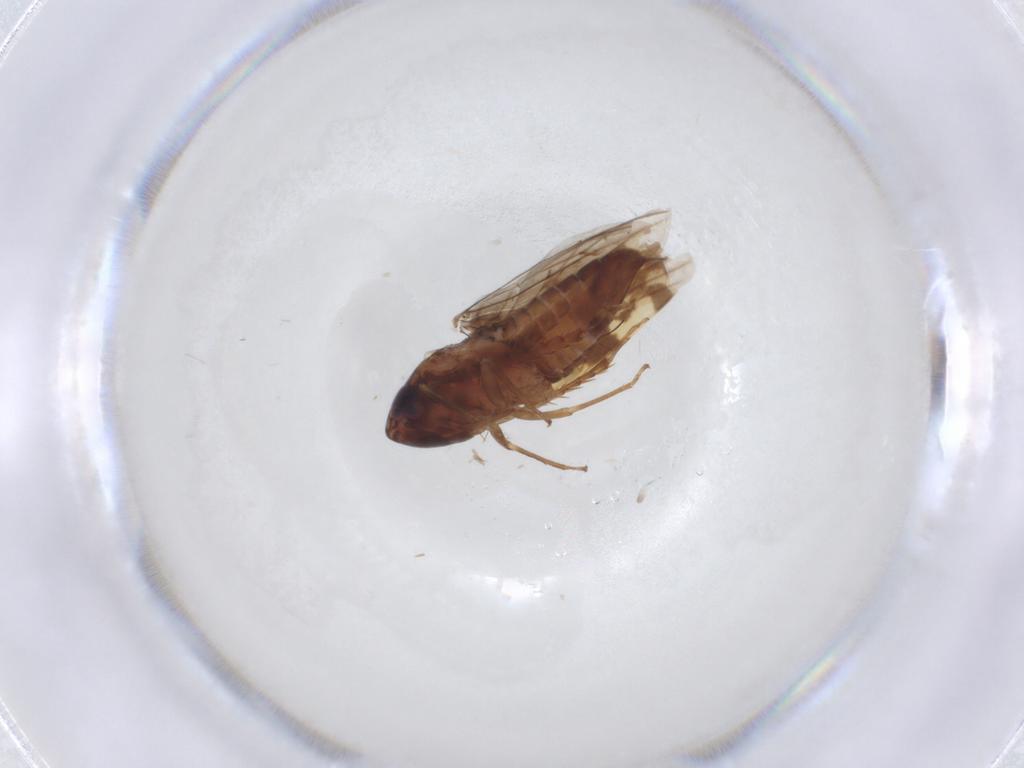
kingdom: Animalia
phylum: Arthropoda
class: Insecta
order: Hemiptera
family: Cicadellidae
